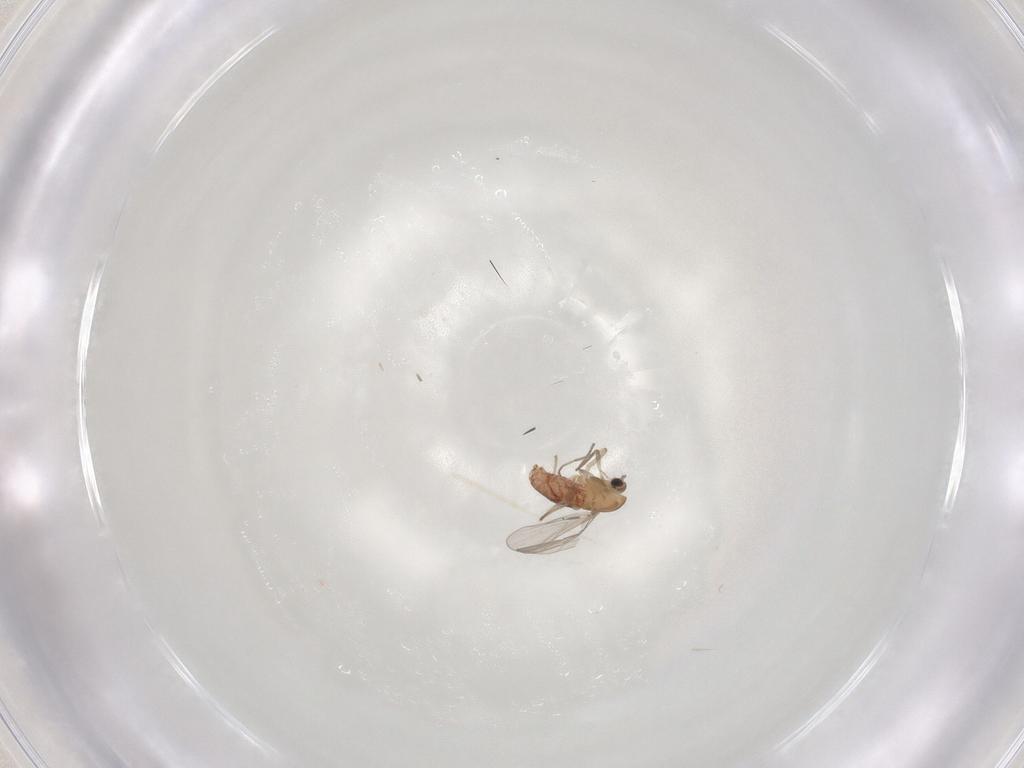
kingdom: Animalia
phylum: Arthropoda
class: Insecta
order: Diptera
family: Chironomidae
